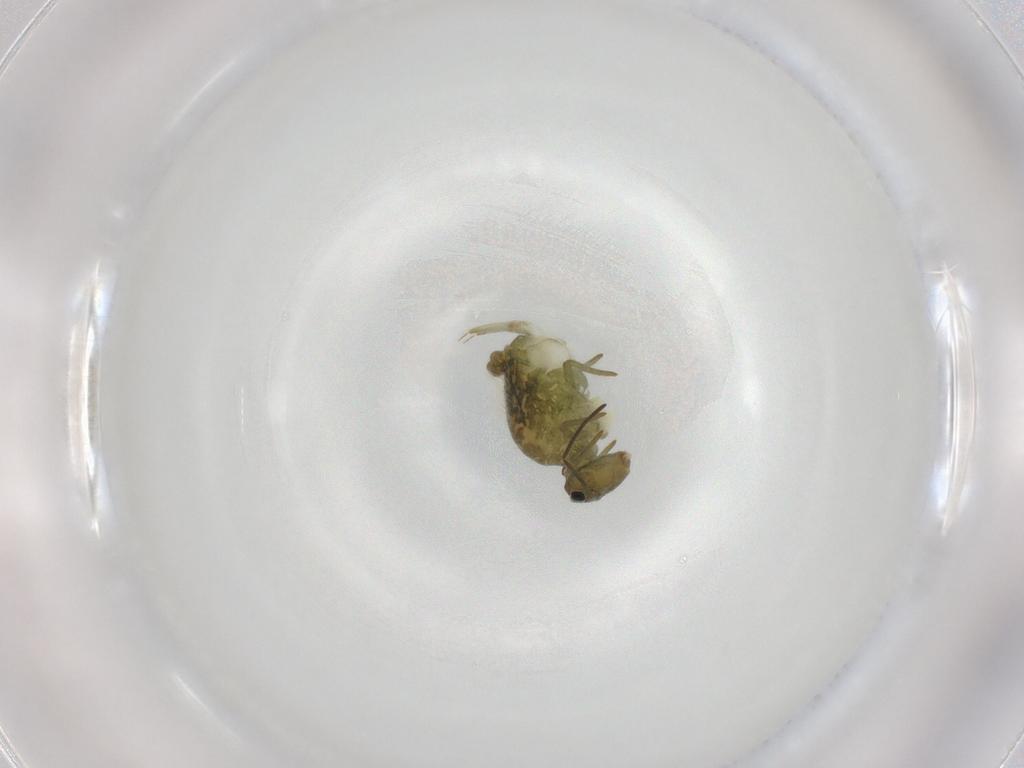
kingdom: Animalia
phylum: Arthropoda
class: Collembola
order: Symphypleona
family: Sminthuridae
